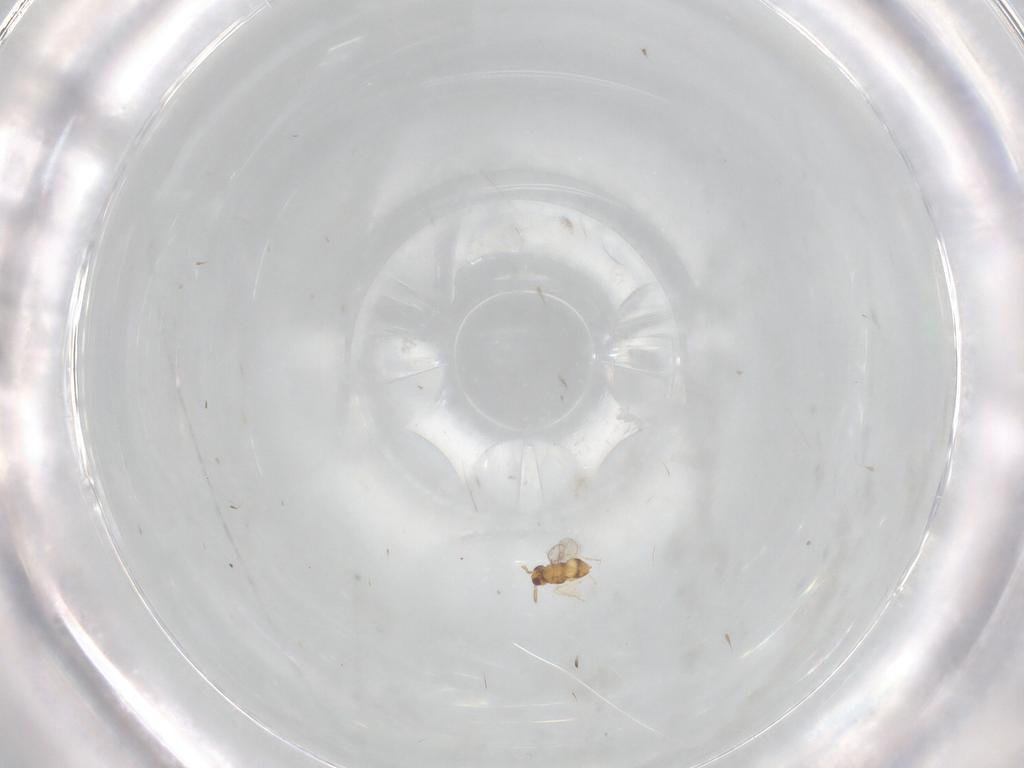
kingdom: Animalia
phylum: Arthropoda
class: Insecta
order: Hymenoptera
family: Aphelinidae
